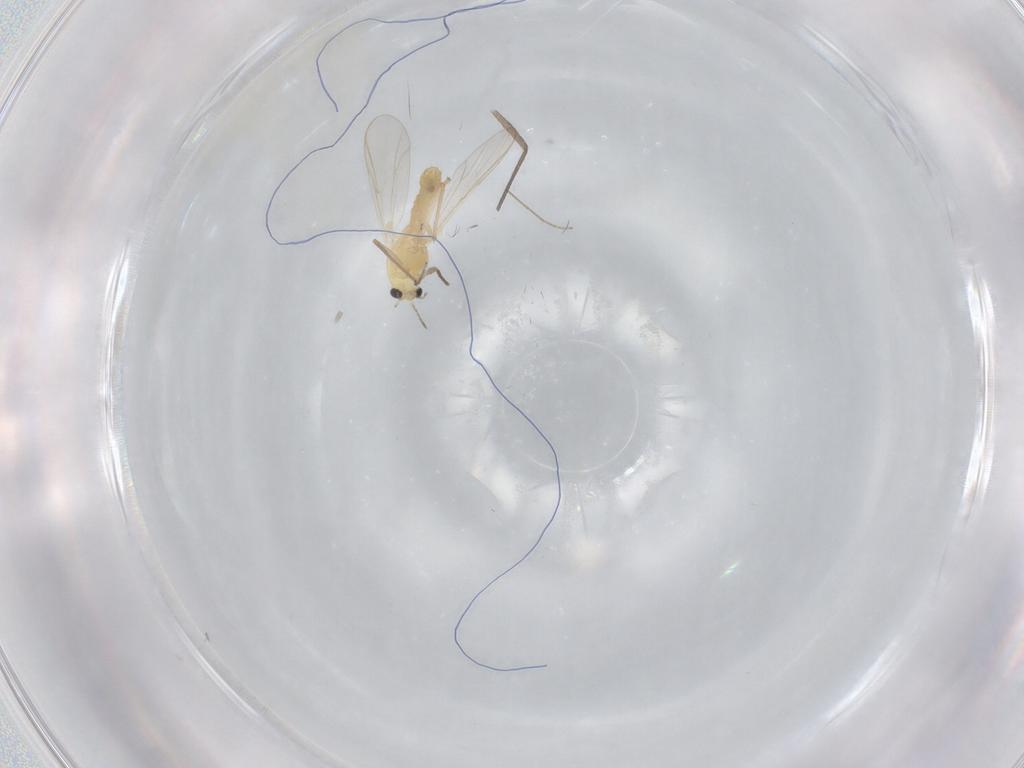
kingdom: Animalia
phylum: Arthropoda
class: Insecta
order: Diptera
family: Chironomidae
